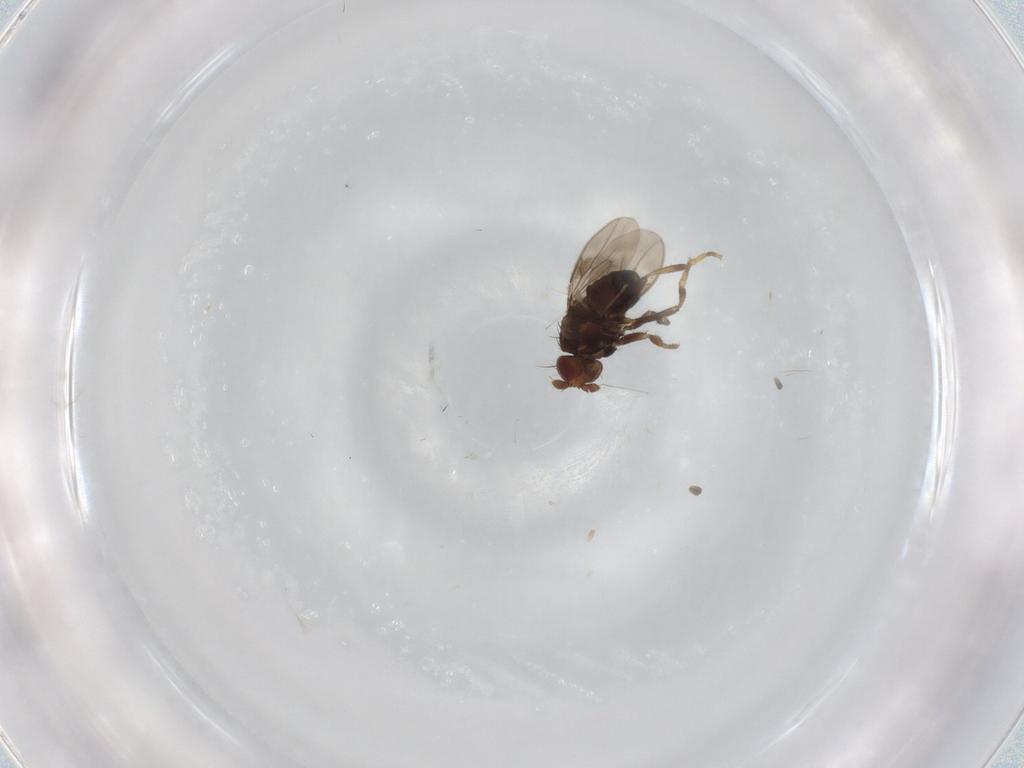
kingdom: Animalia
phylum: Arthropoda
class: Insecta
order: Diptera
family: Sphaeroceridae
